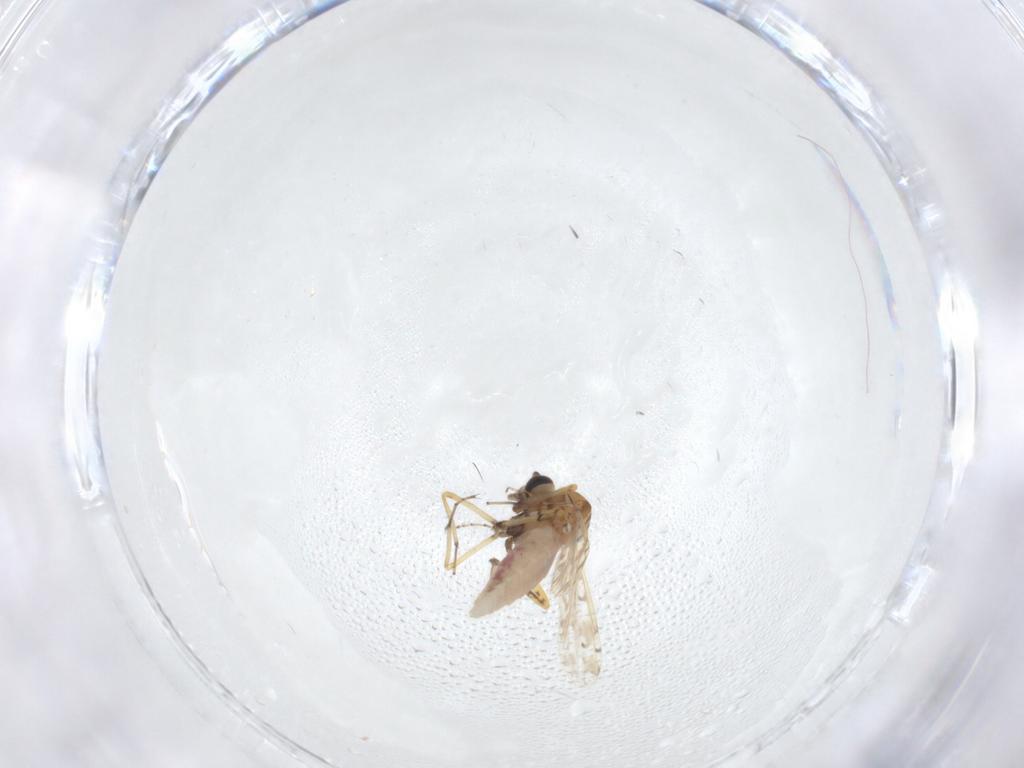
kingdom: Animalia
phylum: Arthropoda
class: Insecta
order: Diptera
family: Ceratopogonidae
